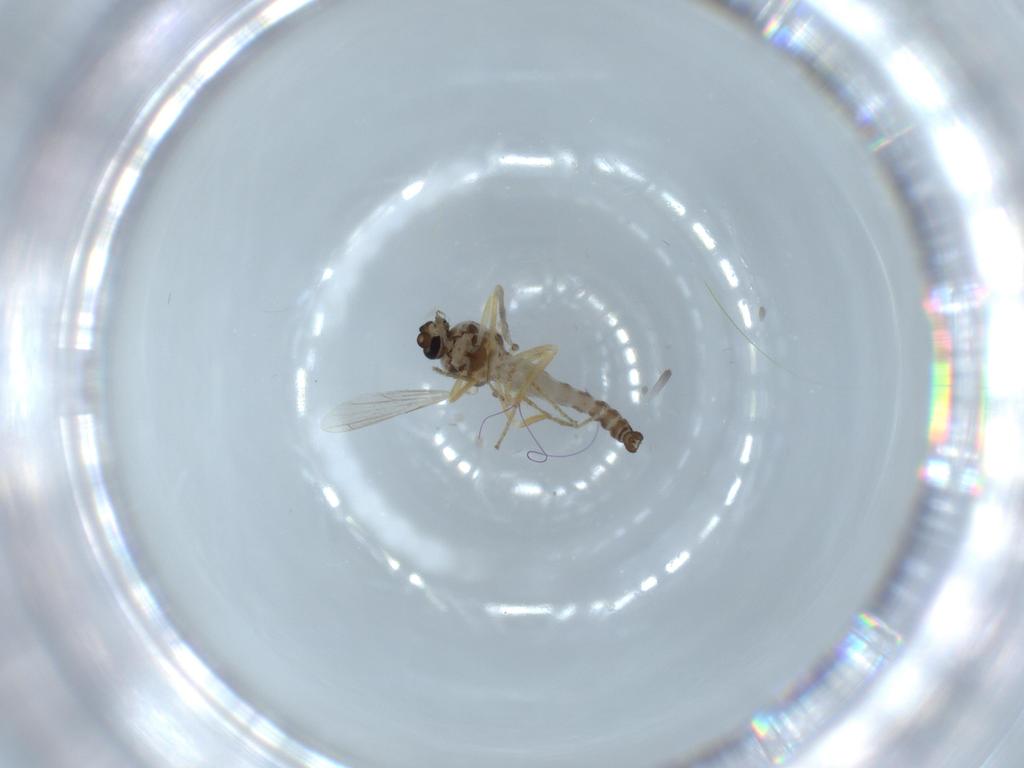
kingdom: Animalia
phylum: Arthropoda
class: Insecta
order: Diptera
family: Ceratopogonidae
